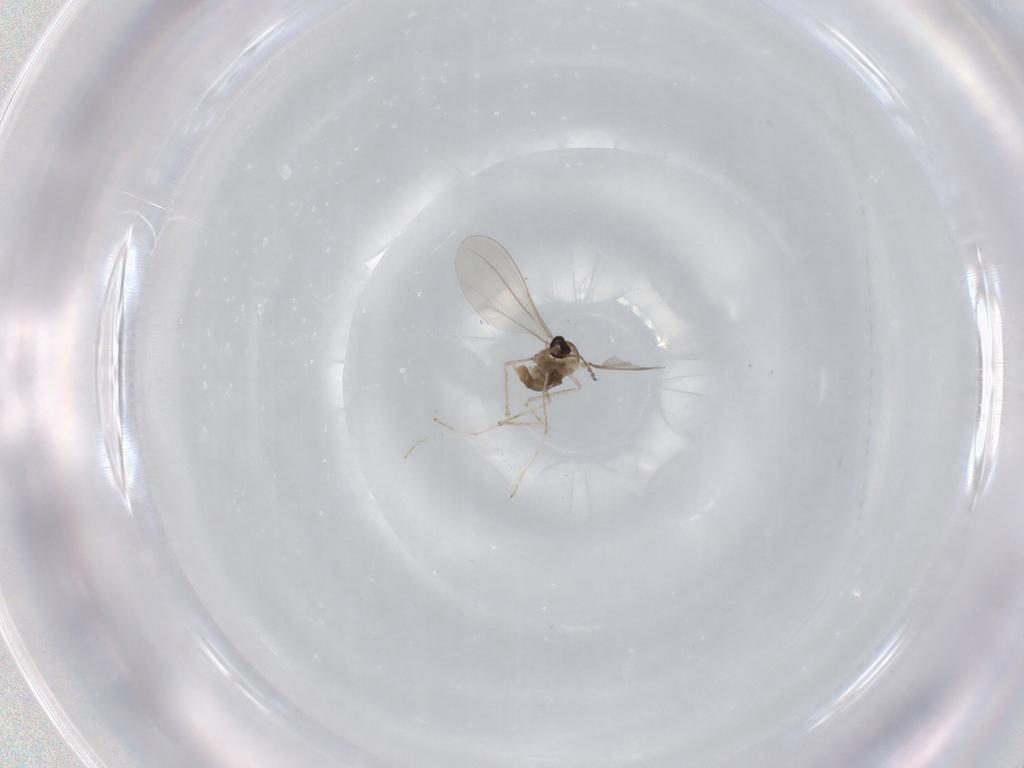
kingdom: Animalia
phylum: Arthropoda
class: Insecta
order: Diptera
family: Cecidomyiidae
